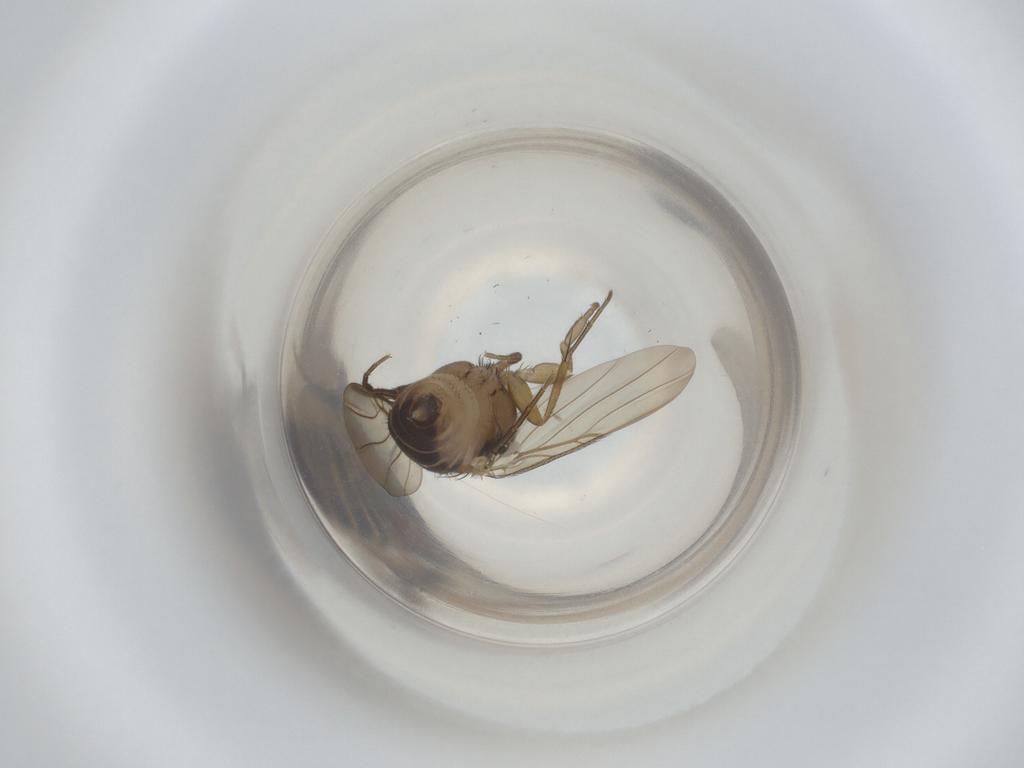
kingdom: Animalia
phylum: Arthropoda
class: Insecta
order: Diptera
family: Phoridae
